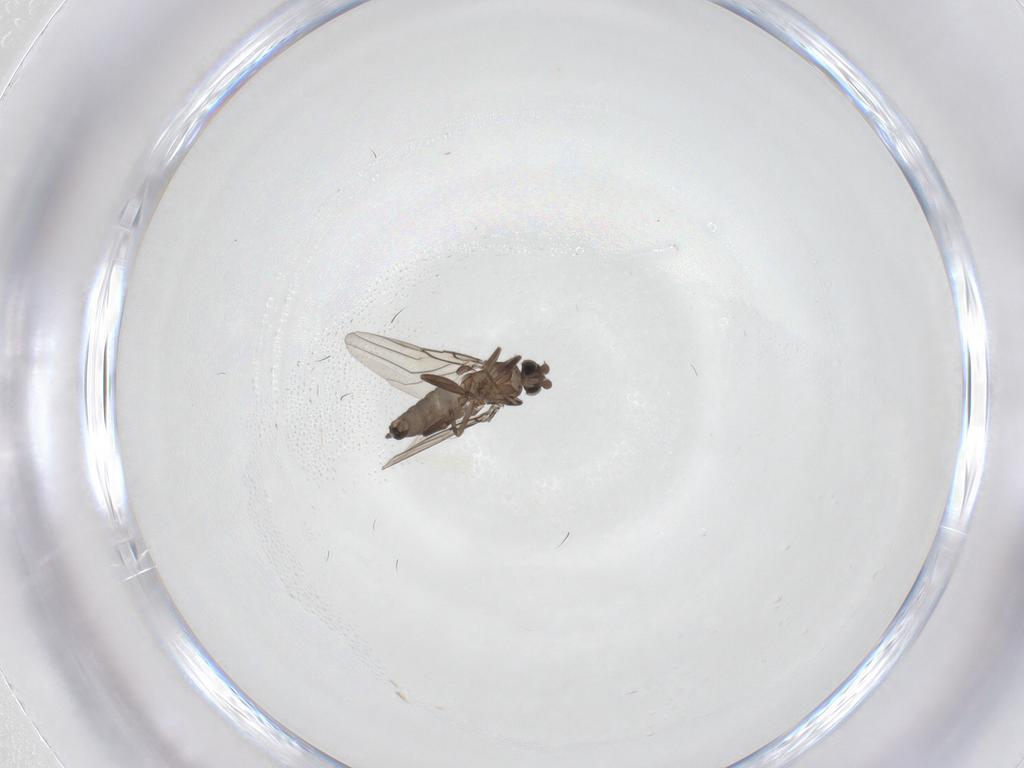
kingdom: Animalia
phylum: Arthropoda
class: Insecta
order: Diptera
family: Phoridae
